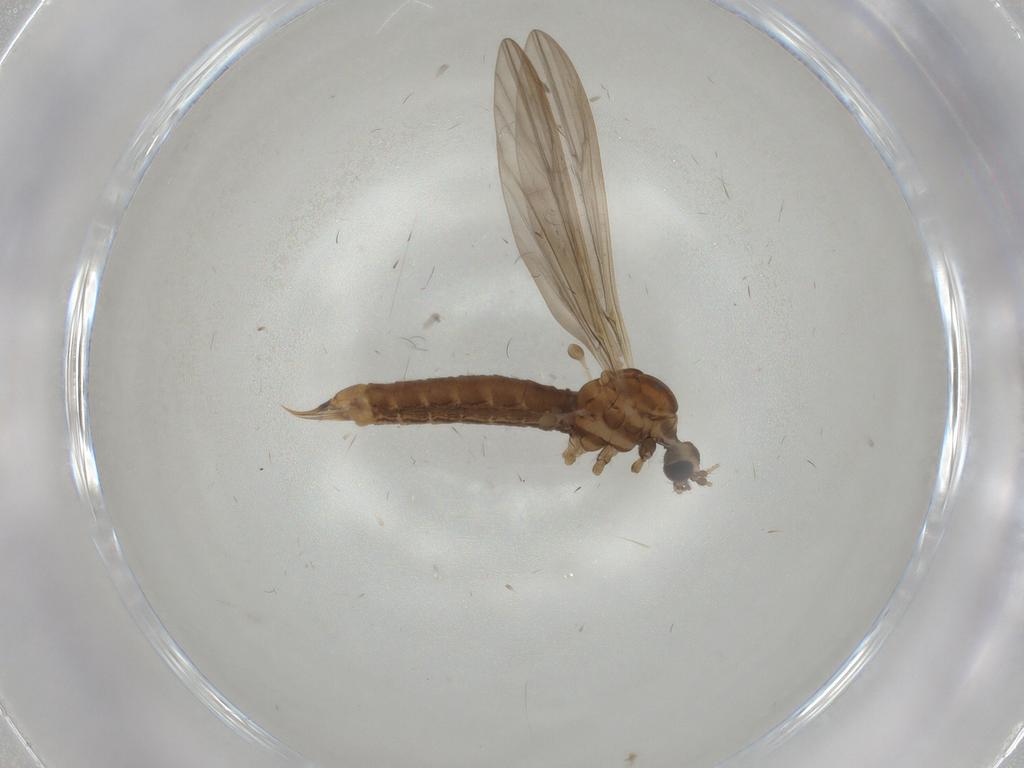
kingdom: Animalia
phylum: Arthropoda
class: Insecta
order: Diptera
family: Limoniidae
